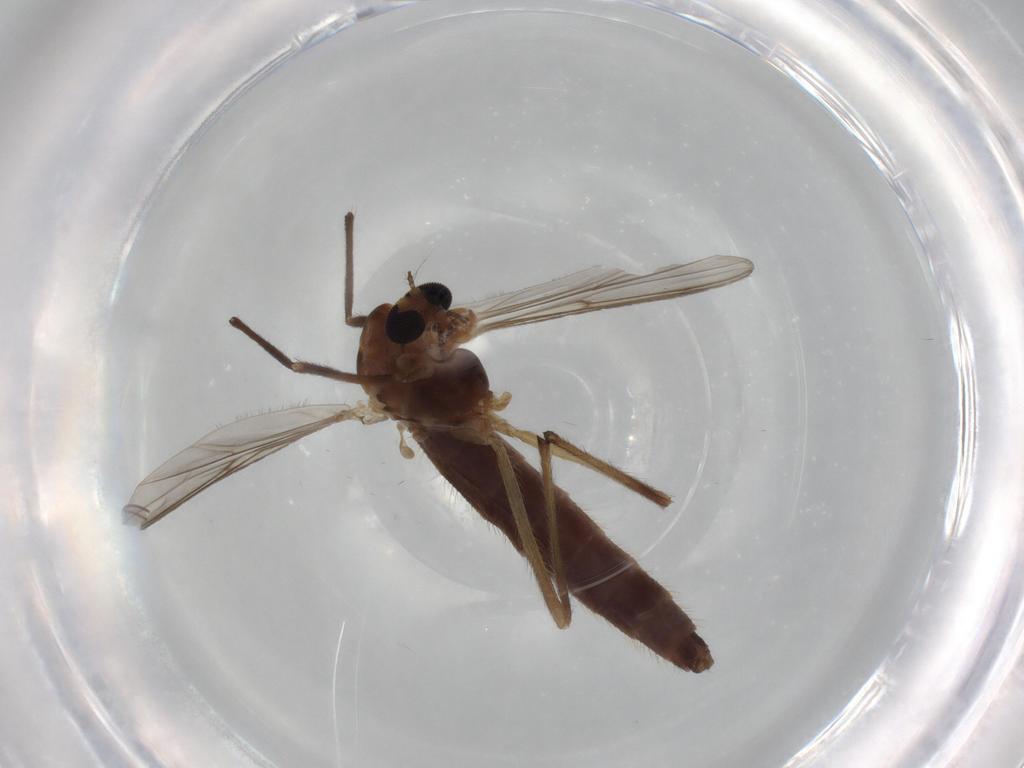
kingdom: Animalia
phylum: Arthropoda
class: Insecta
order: Diptera
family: Chironomidae
